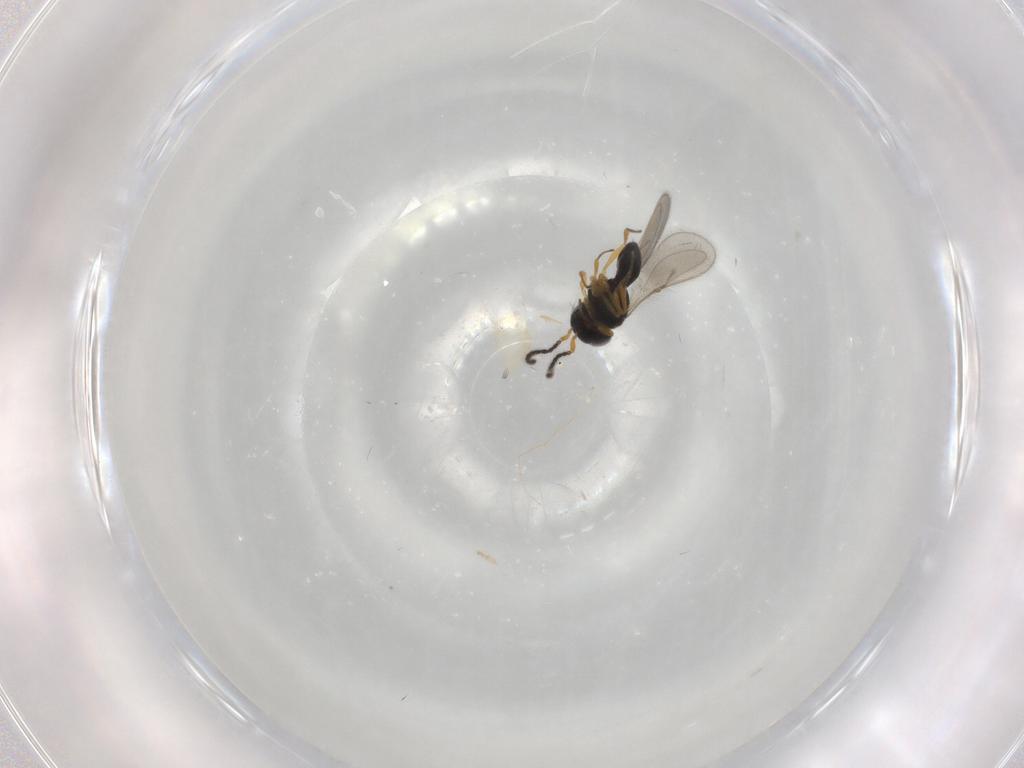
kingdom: Animalia
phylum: Arthropoda
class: Insecta
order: Hymenoptera
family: Scelionidae
